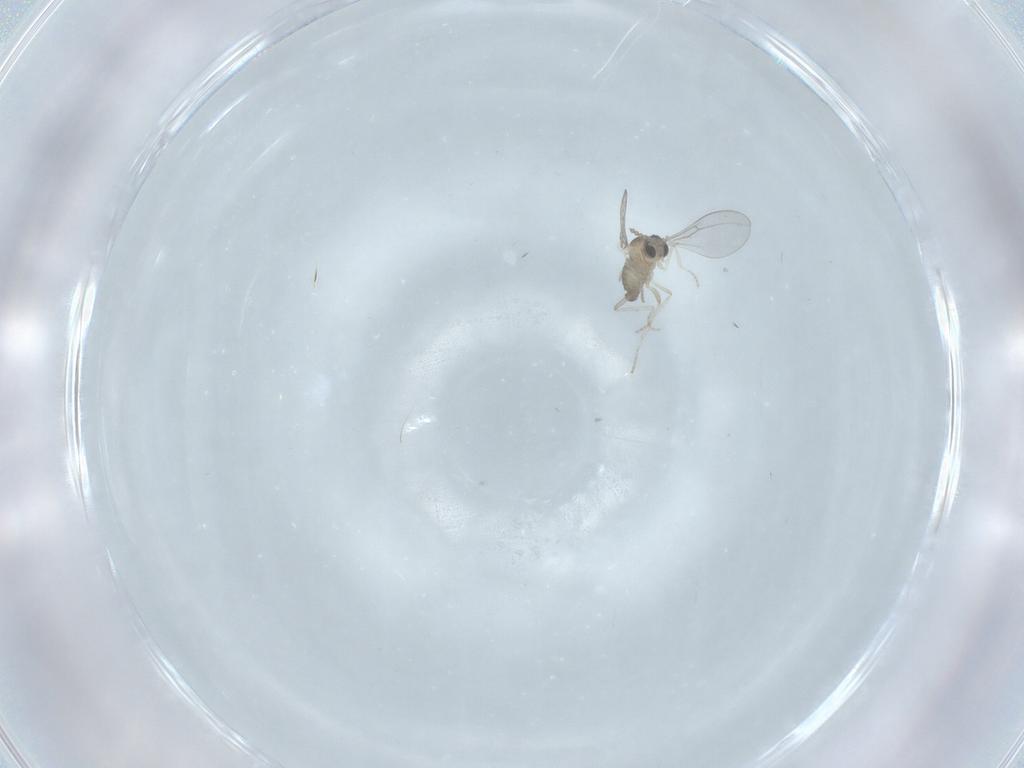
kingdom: Animalia
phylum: Arthropoda
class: Insecta
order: Diptera
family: Cecidomyiidae
